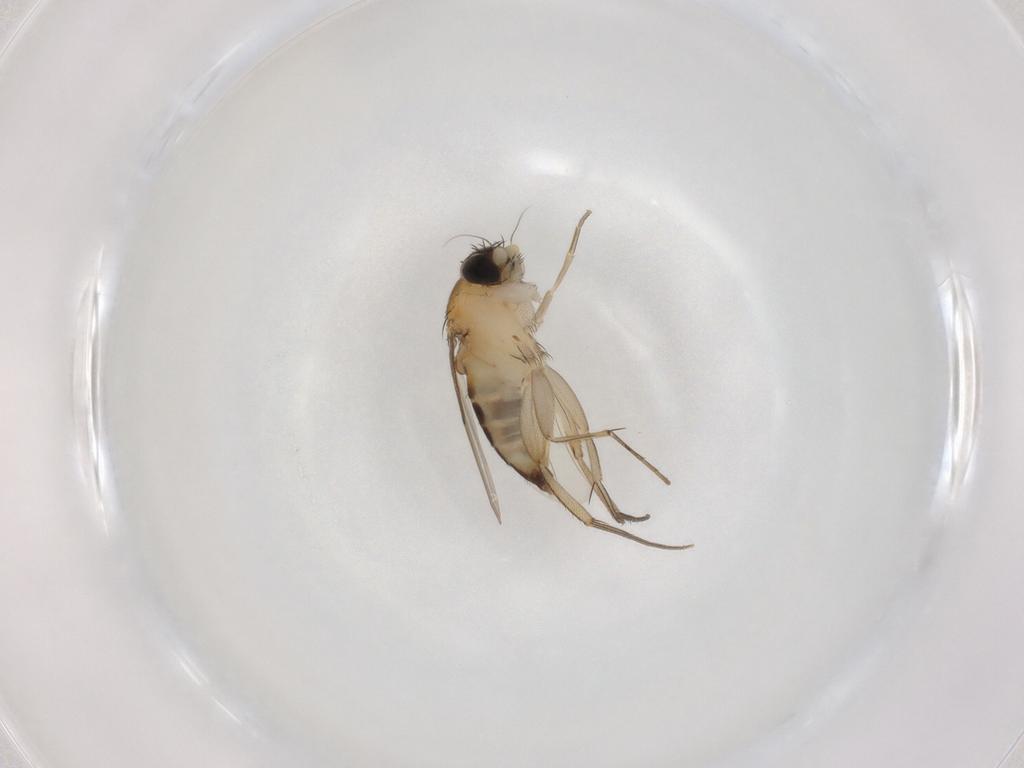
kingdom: Animalia
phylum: Arthropoda
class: Insecta
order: Diptera
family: Phoridae
